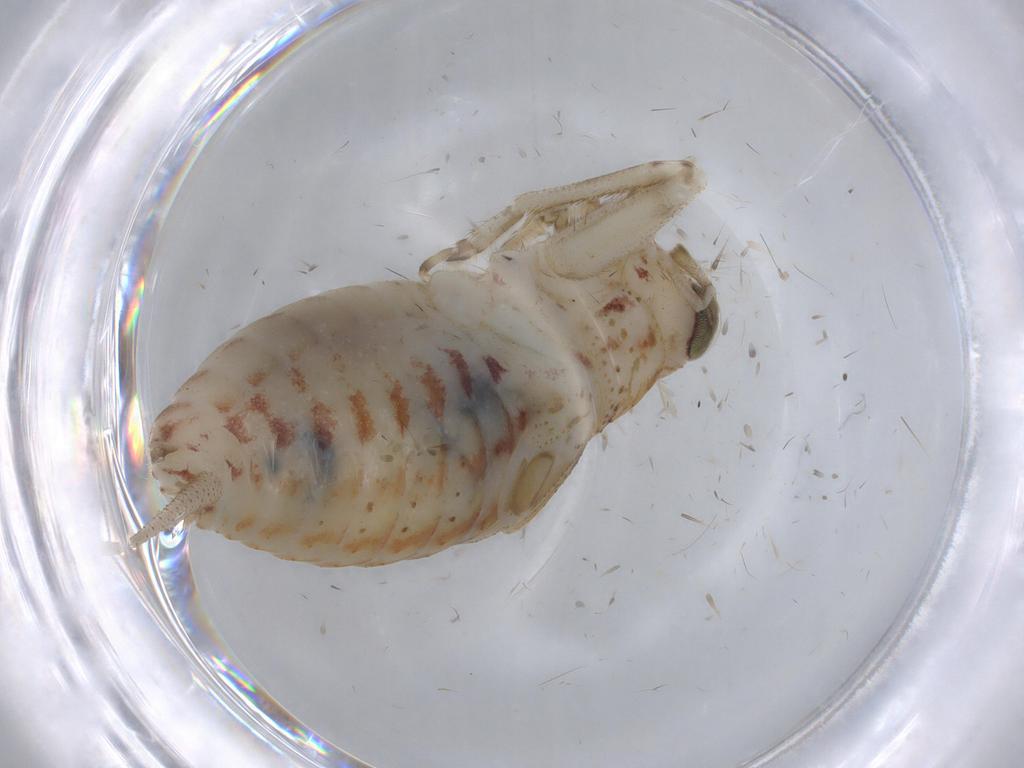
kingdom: Animalia
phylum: Arthropoda
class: Insecta
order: Orthoptera
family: Trigonidiidae
